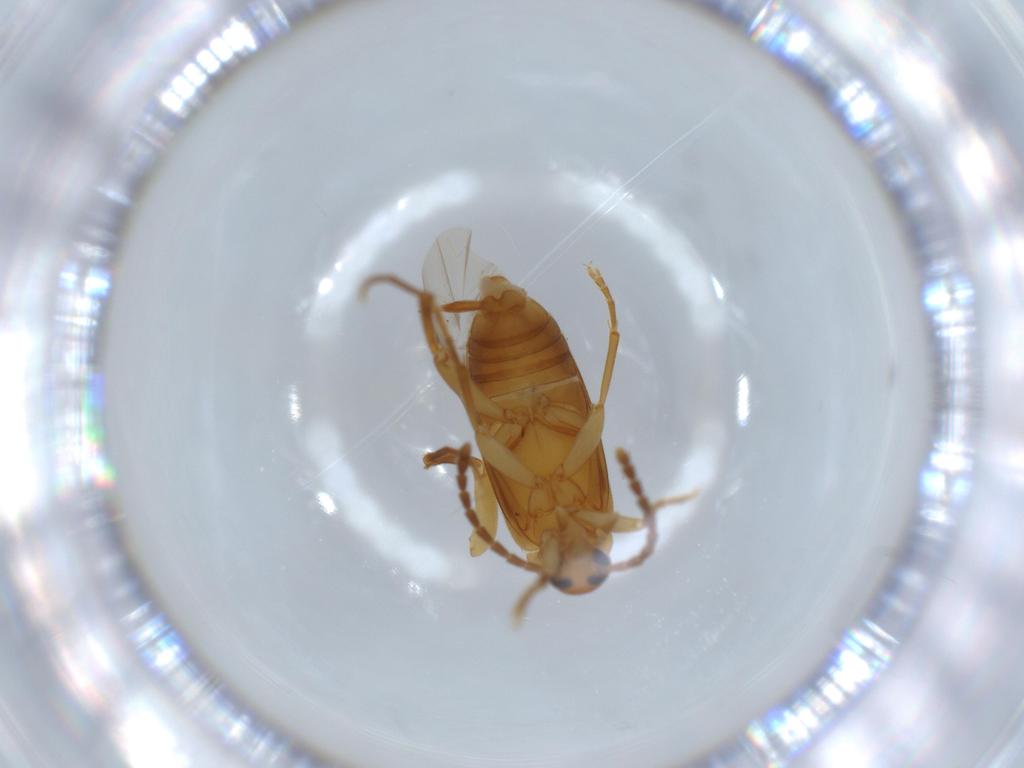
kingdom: Animalia
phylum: Arthropoda
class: Insecta
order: Coleoptera
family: Scraptiidae
